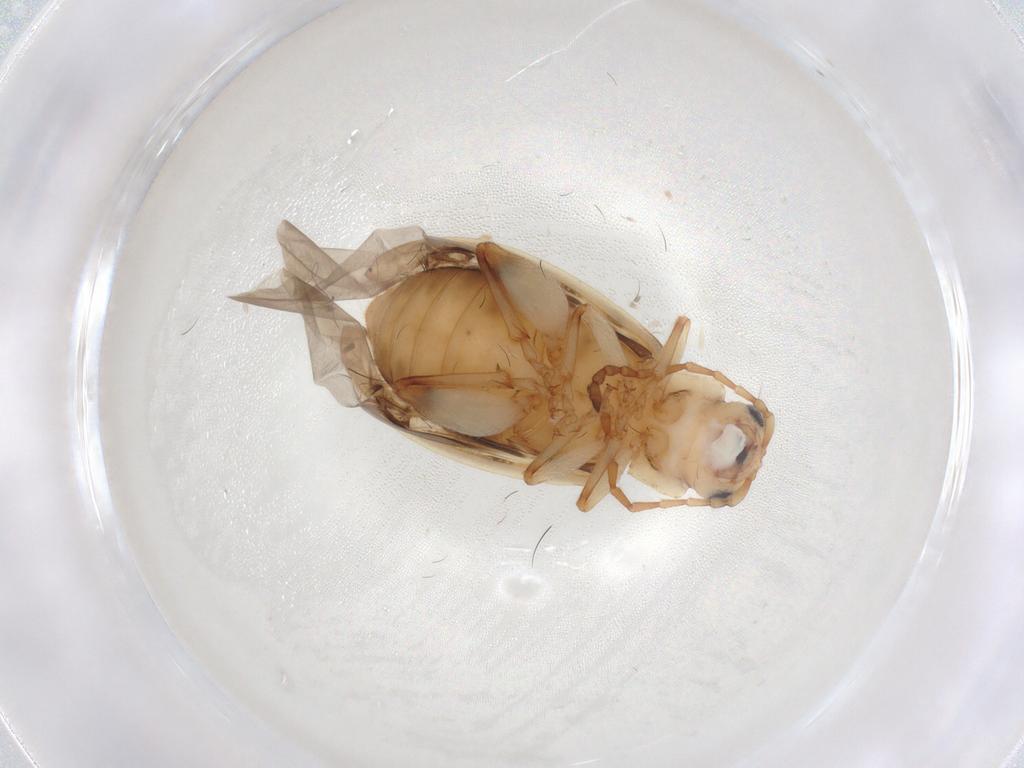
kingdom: Animalia
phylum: Arthropoda
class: Insecta
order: Coleoptera
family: Chrysomelidae
